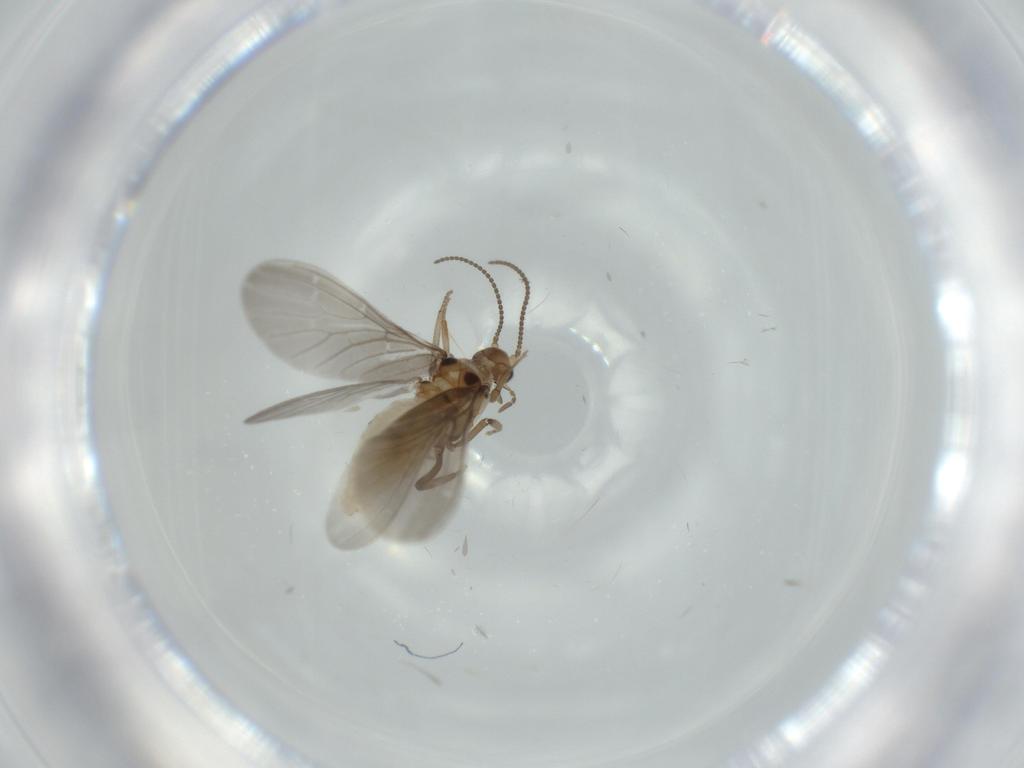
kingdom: Animalia
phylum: Arthropoda
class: Insecta
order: Neuroptera
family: Coniopterygidae
